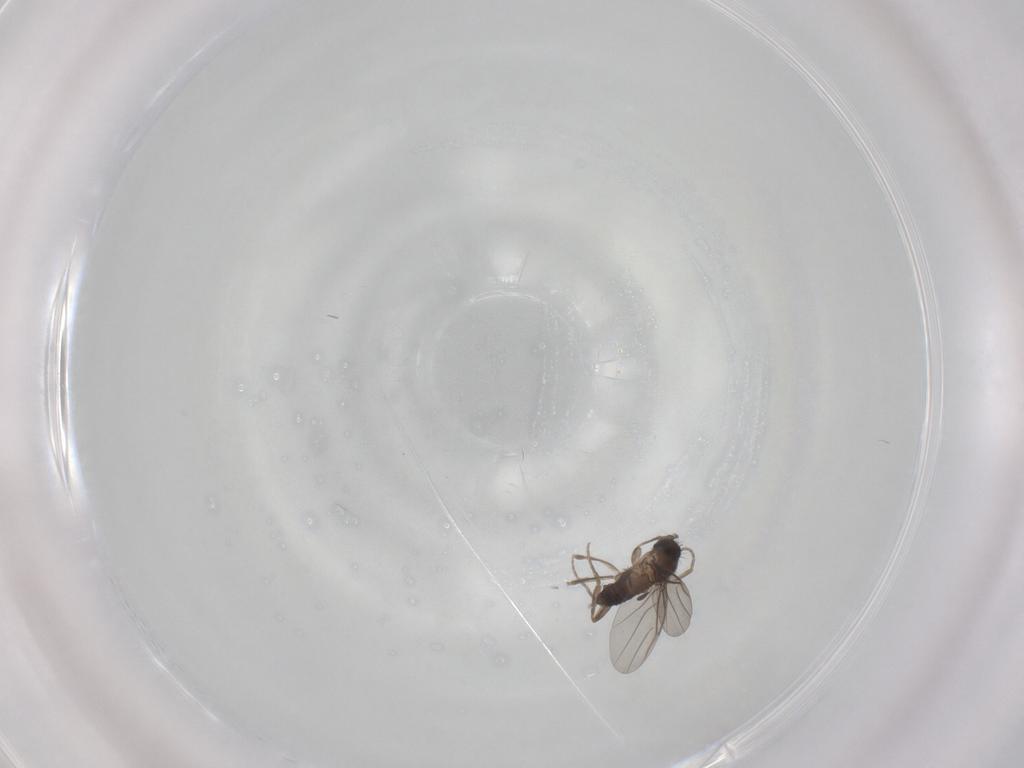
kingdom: Animalia
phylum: Arthropoda
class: Insecta
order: Diptera
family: Phoridae
